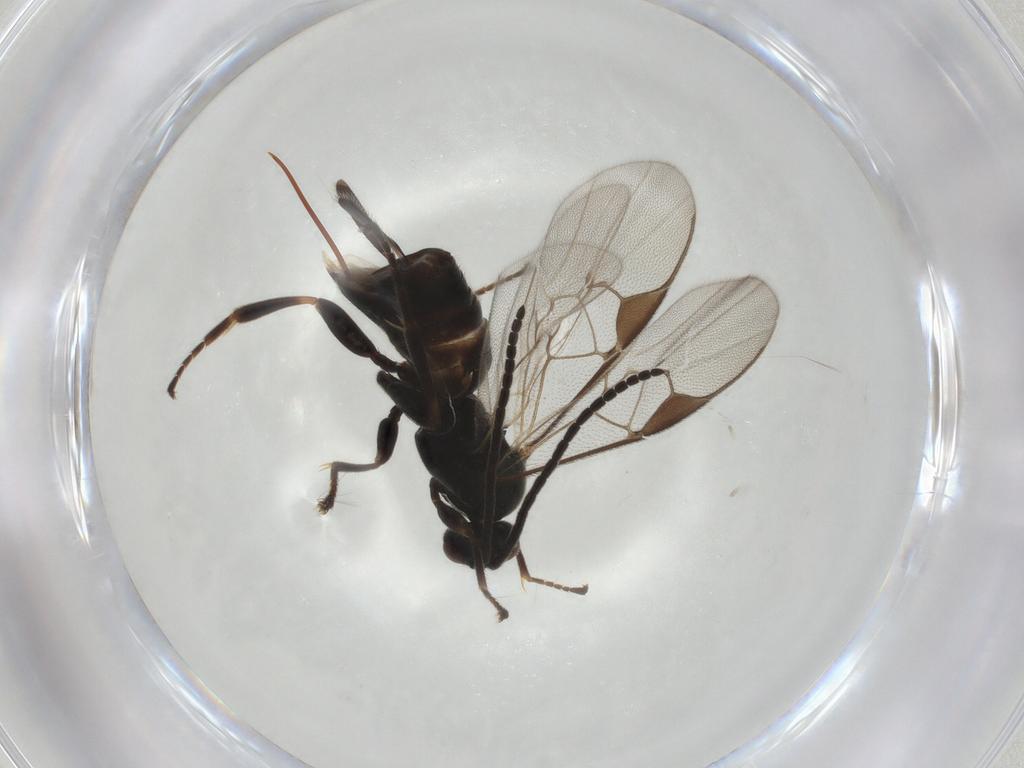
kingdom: Animalia
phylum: Arthropoda
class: Insecta
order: Hymenoptera
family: Braconidae
